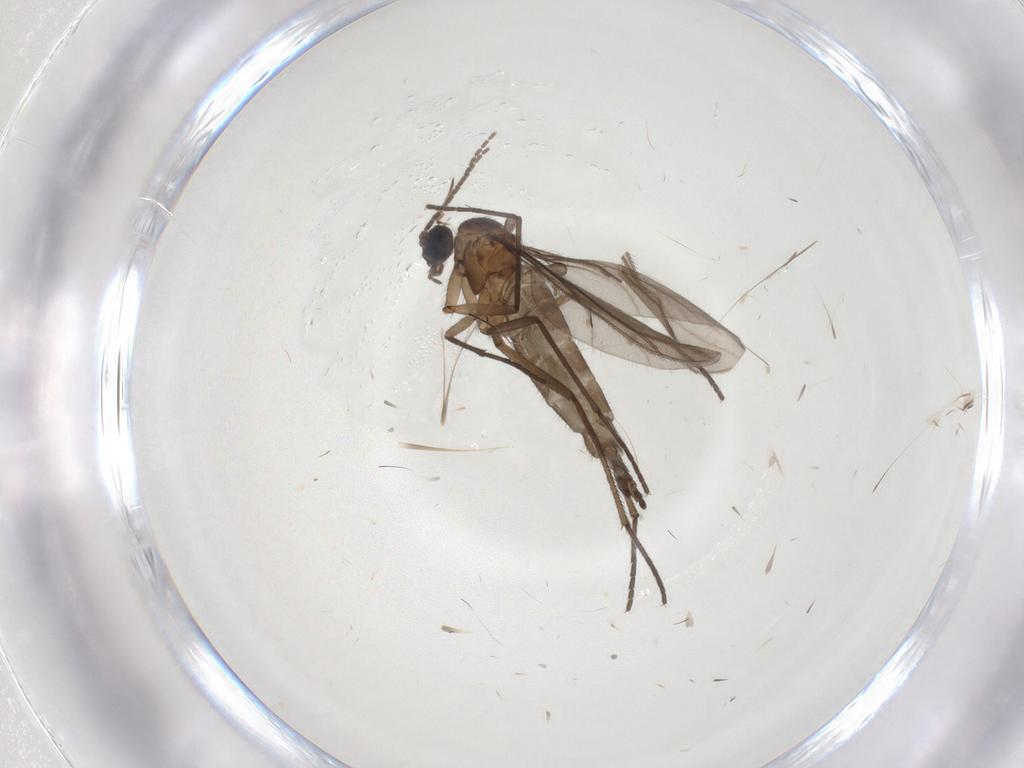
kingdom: Animalia
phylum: Arthropoda
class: Insecta
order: Diptera
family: Sciaridae
